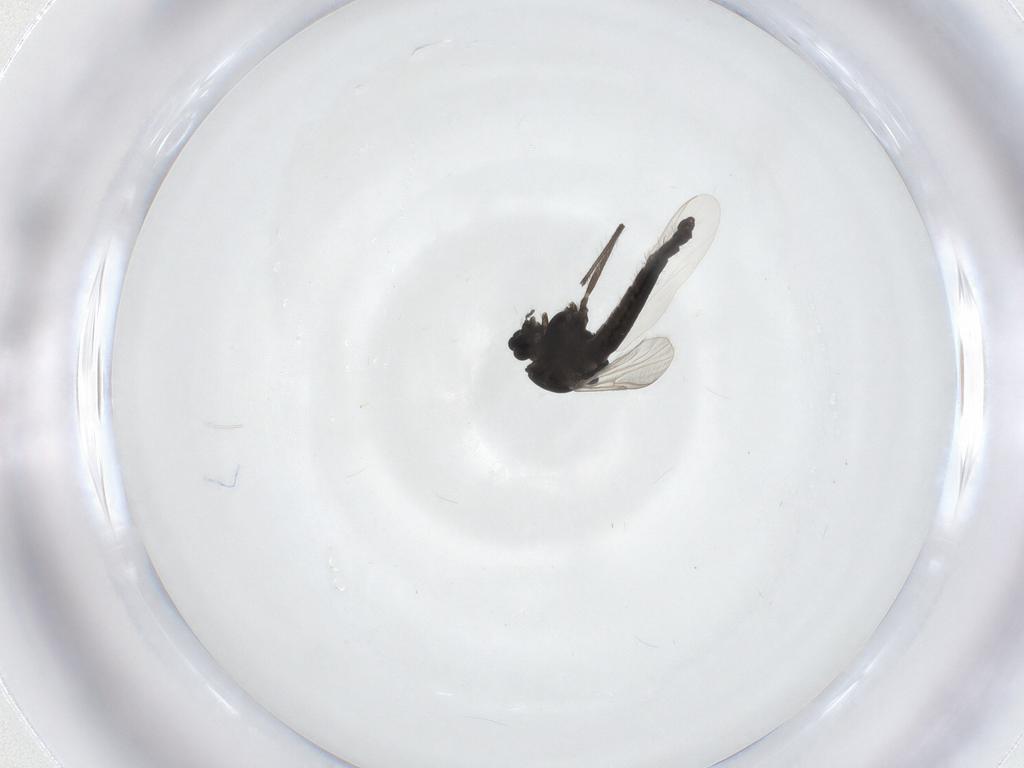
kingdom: Animalia
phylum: Arthropoda
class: Insecta
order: Diptera
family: Chironomidae
